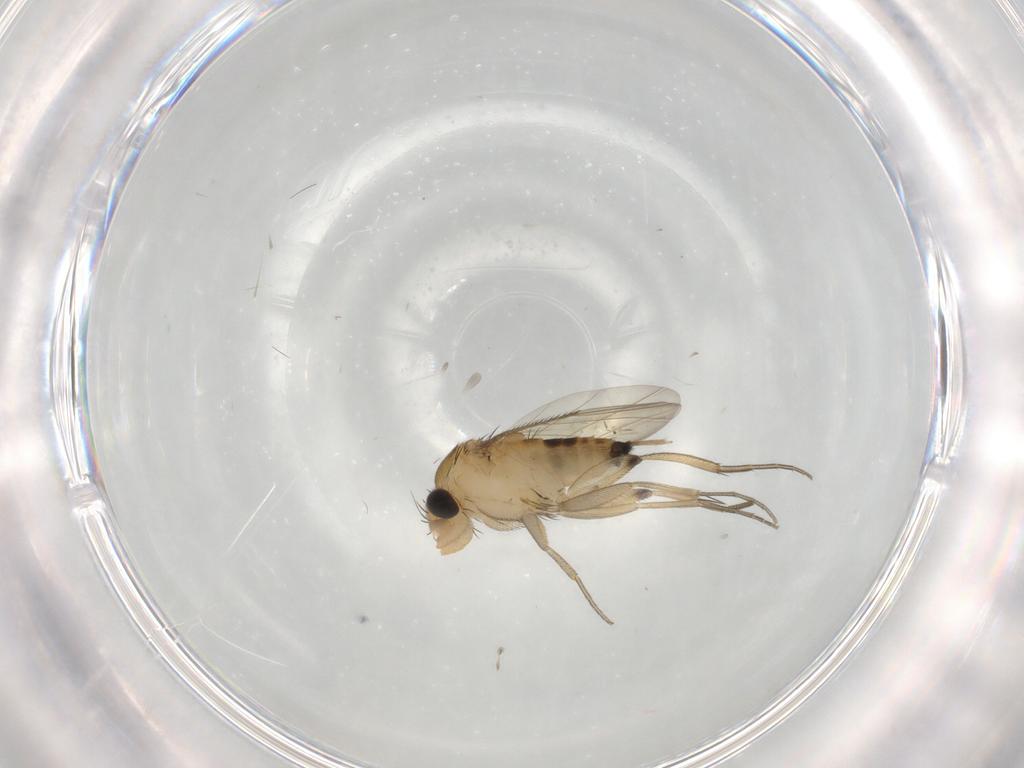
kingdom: Animalia
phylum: Arthropoda
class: Insecta
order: Diptera
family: Phoridae
